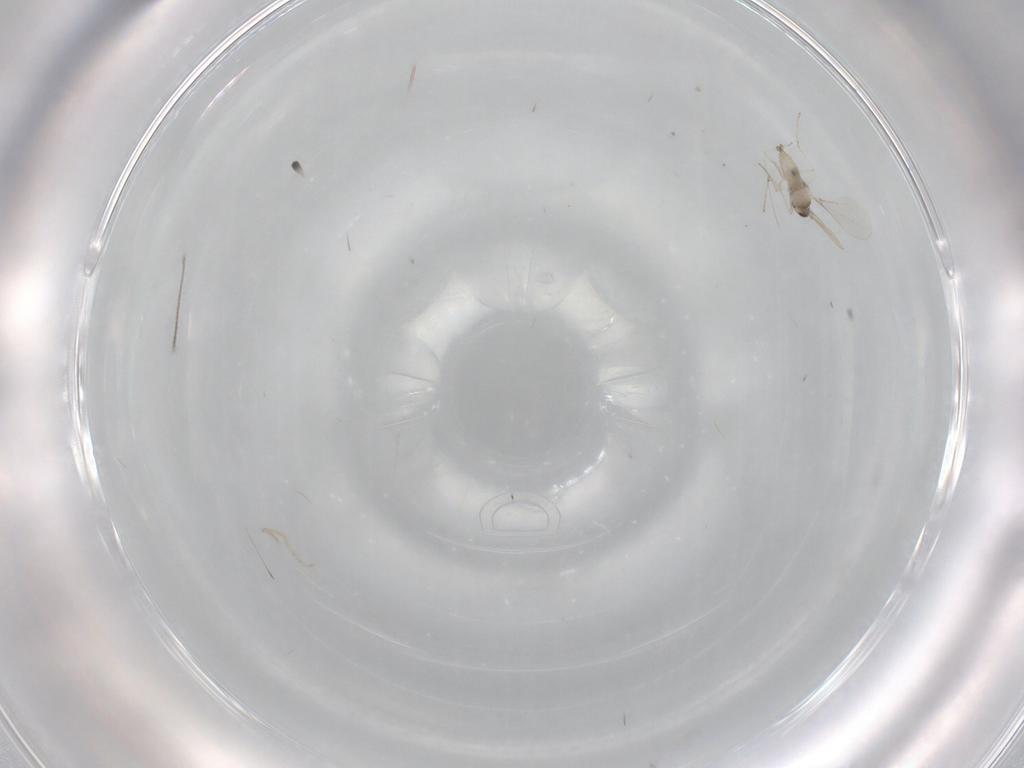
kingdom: Animalia
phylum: Arthropoda
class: Insecta
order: Diptera
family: Cecidomyiidae
